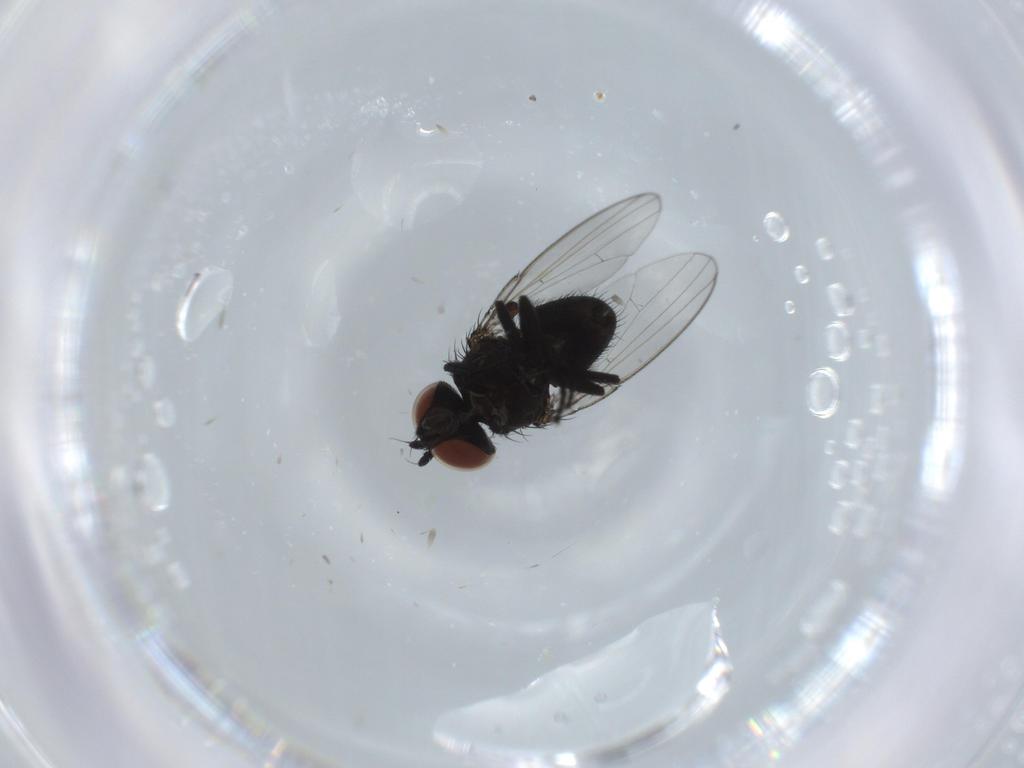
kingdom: Animalia
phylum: Arthropoda
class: Insecta
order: Diptera
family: Milichiidae
